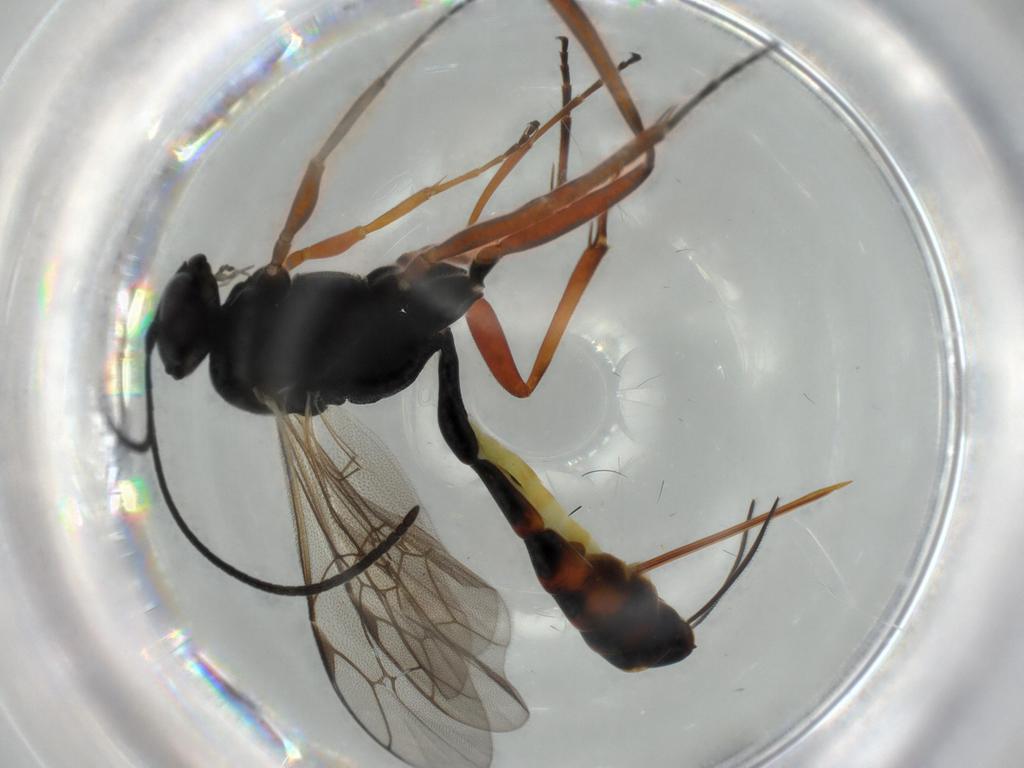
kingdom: Animalia
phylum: Arthropoda
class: Insecta
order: Hymenoptera
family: Ichneumonidae
